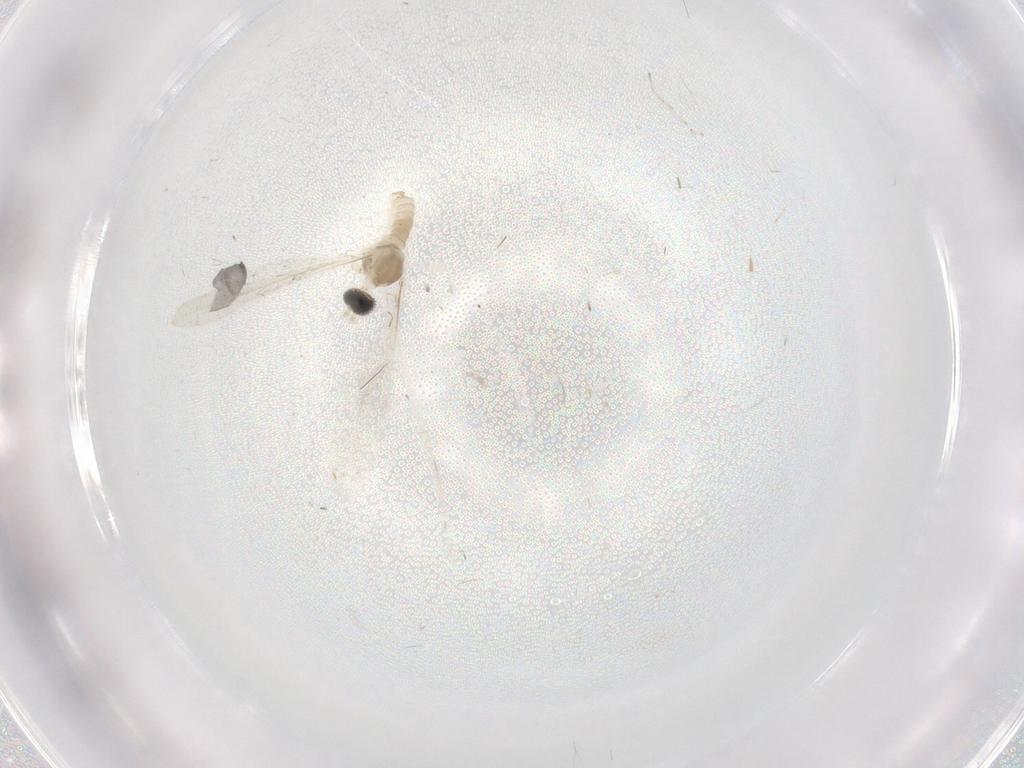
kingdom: Animalia
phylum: Arthropoda
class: Insecta
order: Diptera
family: Cecidomyiidae
